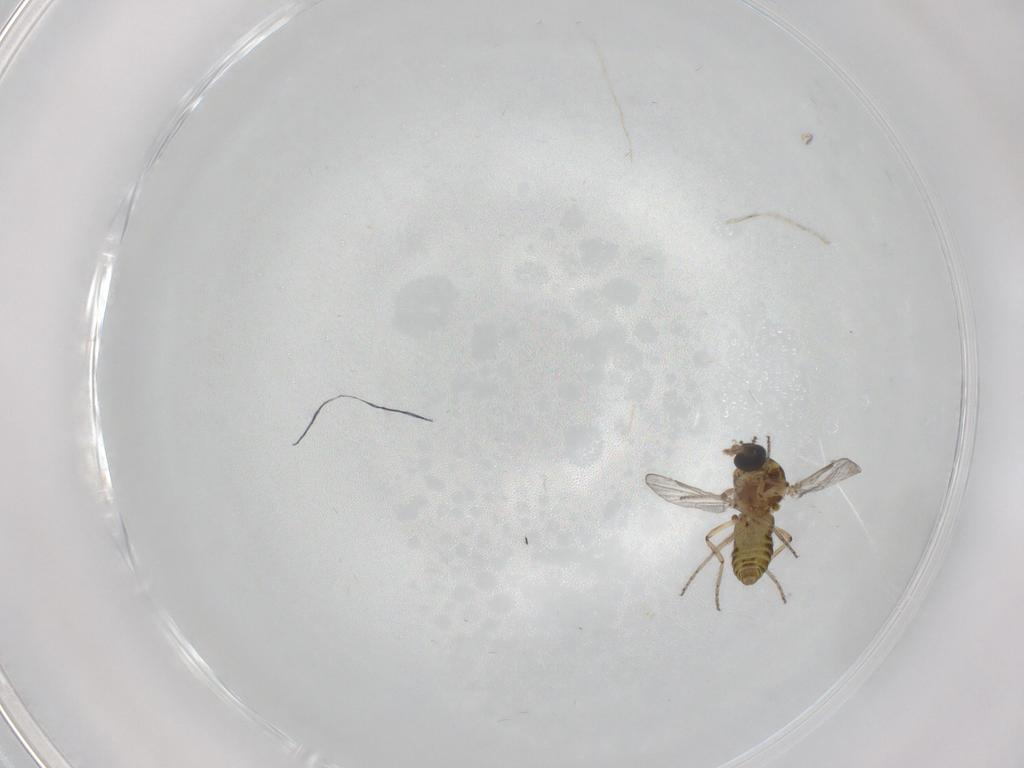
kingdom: Animalia
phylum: Arthropoda
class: Insecta
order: Diptera
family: Ceratopogonidae
